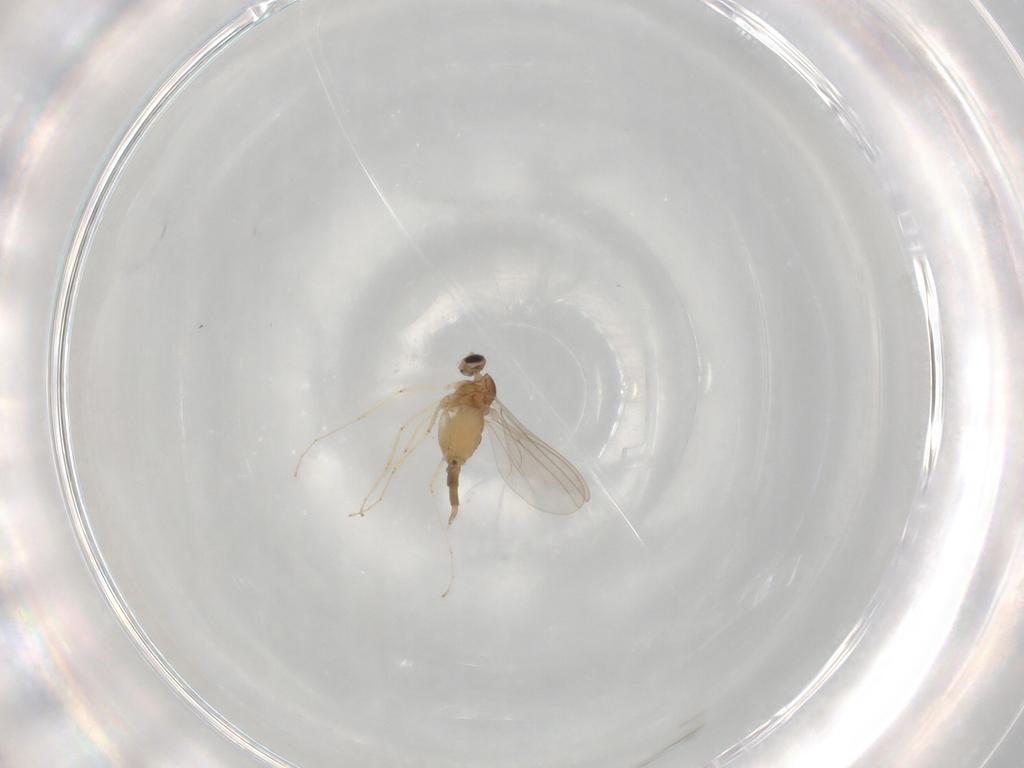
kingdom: Animalia
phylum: Arthropoda
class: Insecta
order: Diptera
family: Cecidomyiidae
